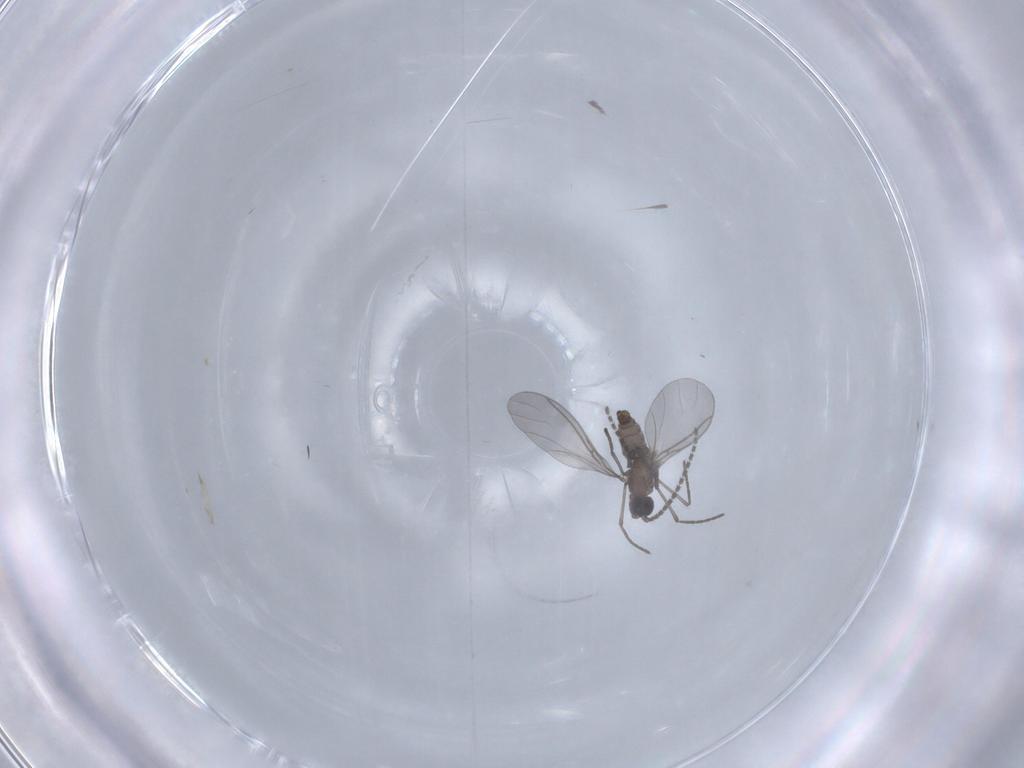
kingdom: Animalia
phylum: Arthropoda
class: Insecta
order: Diptera
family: Sciaridae
